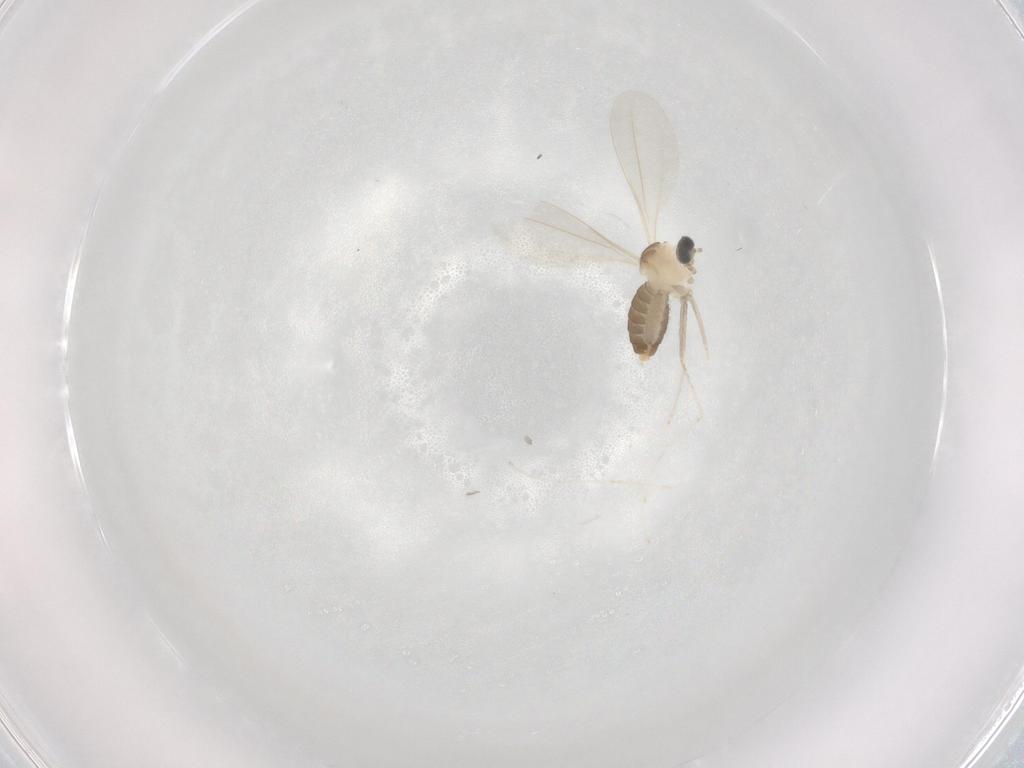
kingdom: Animalia
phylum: Arthropoda
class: Insecta
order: Diptera
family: Cecidomyiidae
